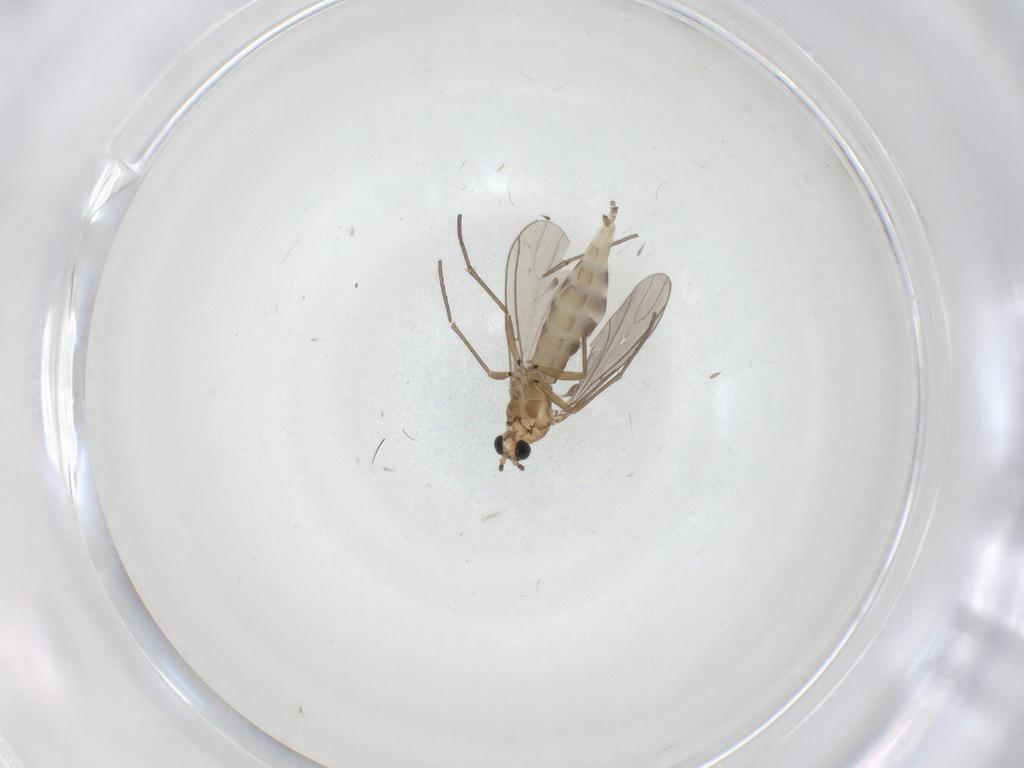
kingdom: Animalia
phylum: Arthropoda
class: Insecta
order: Diptera
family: Sciaridae
